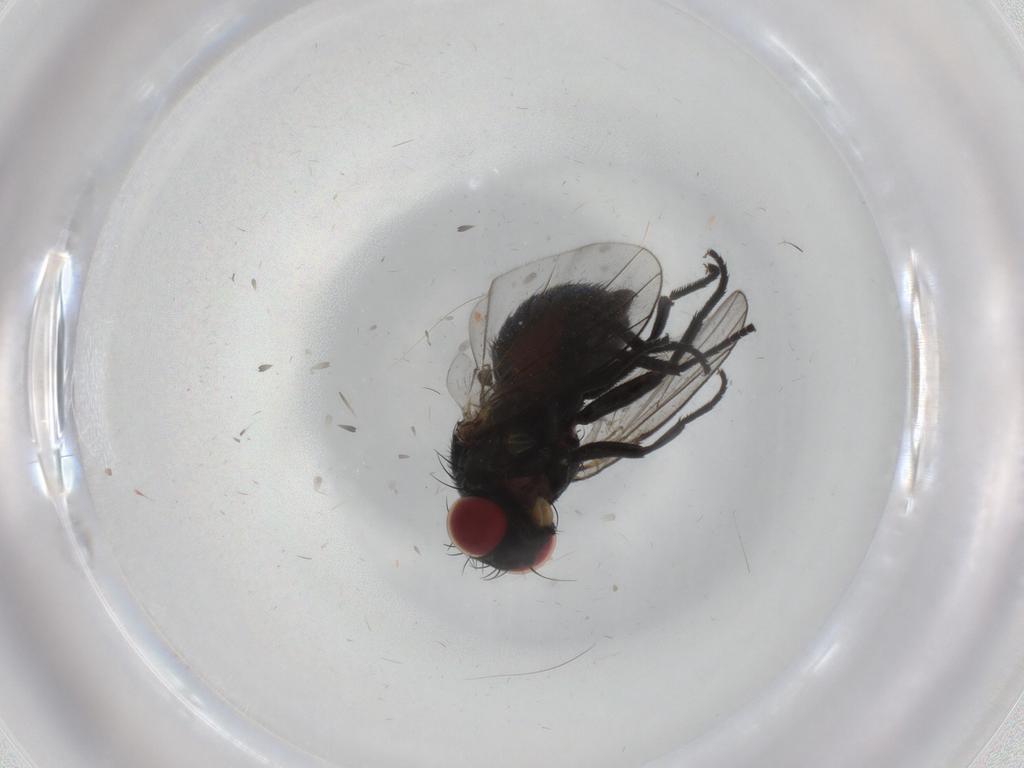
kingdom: Animalia
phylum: Arthropoda
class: Insecta
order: Diptera
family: Agromyzidae
